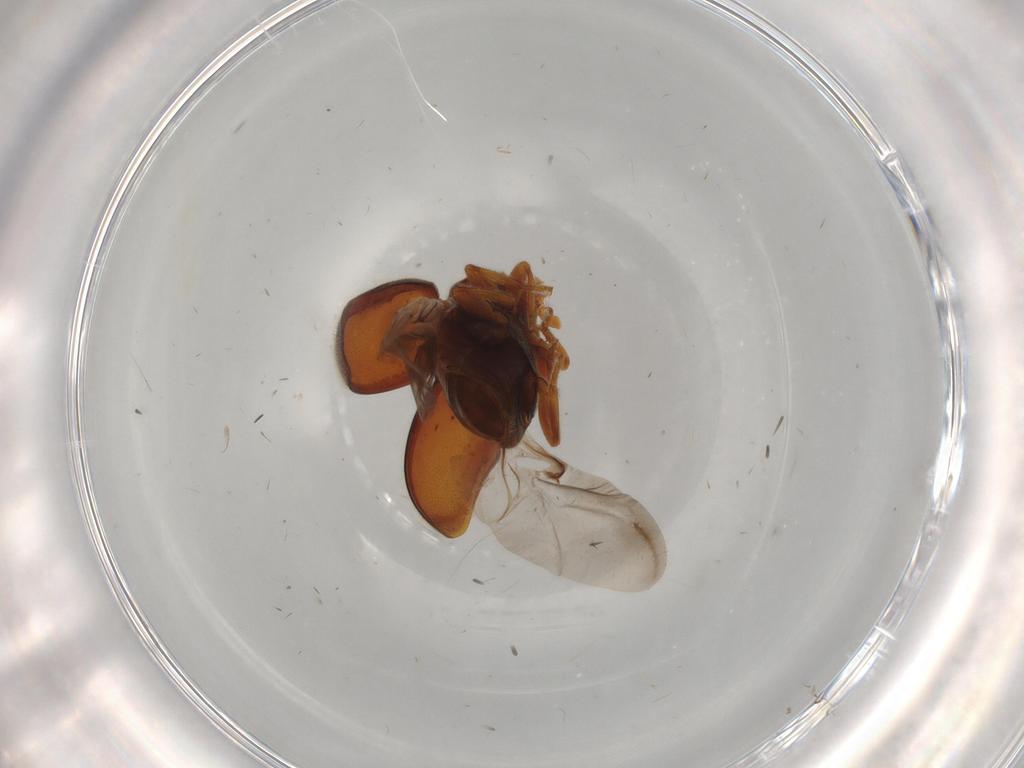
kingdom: Animalia
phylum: Arthropoda
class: Insecta
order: Coleoptera
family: Coccinellidae
